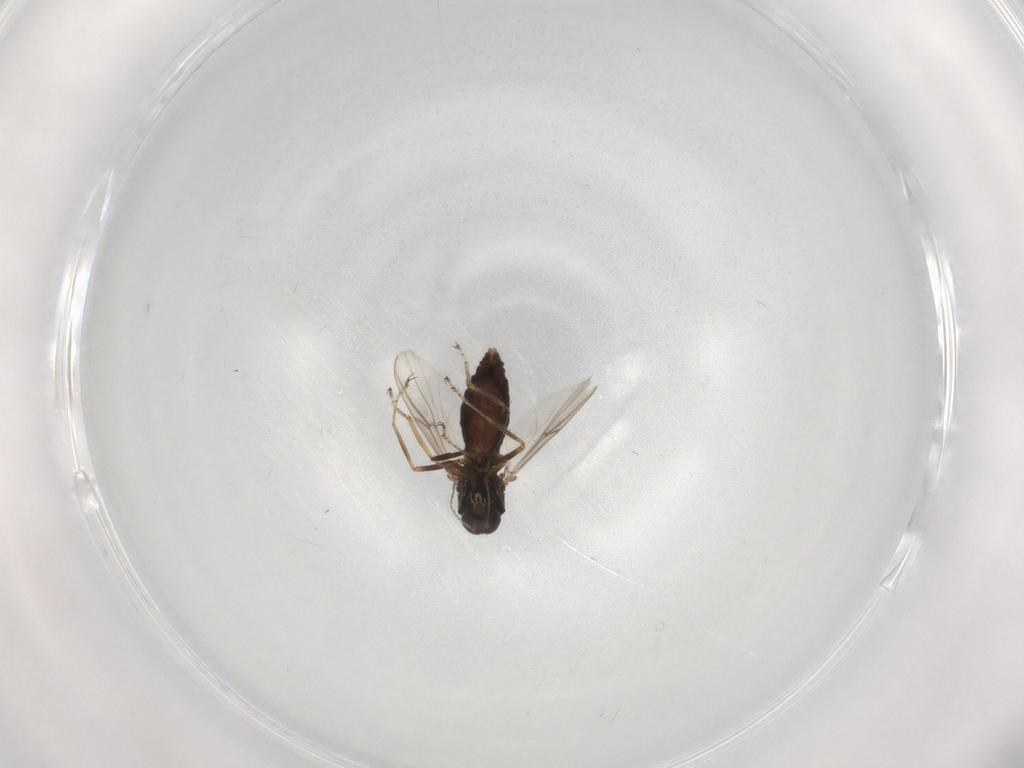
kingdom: Animalia
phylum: Arthropoda
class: Insecta
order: Diptera
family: Ceratopogonidae
